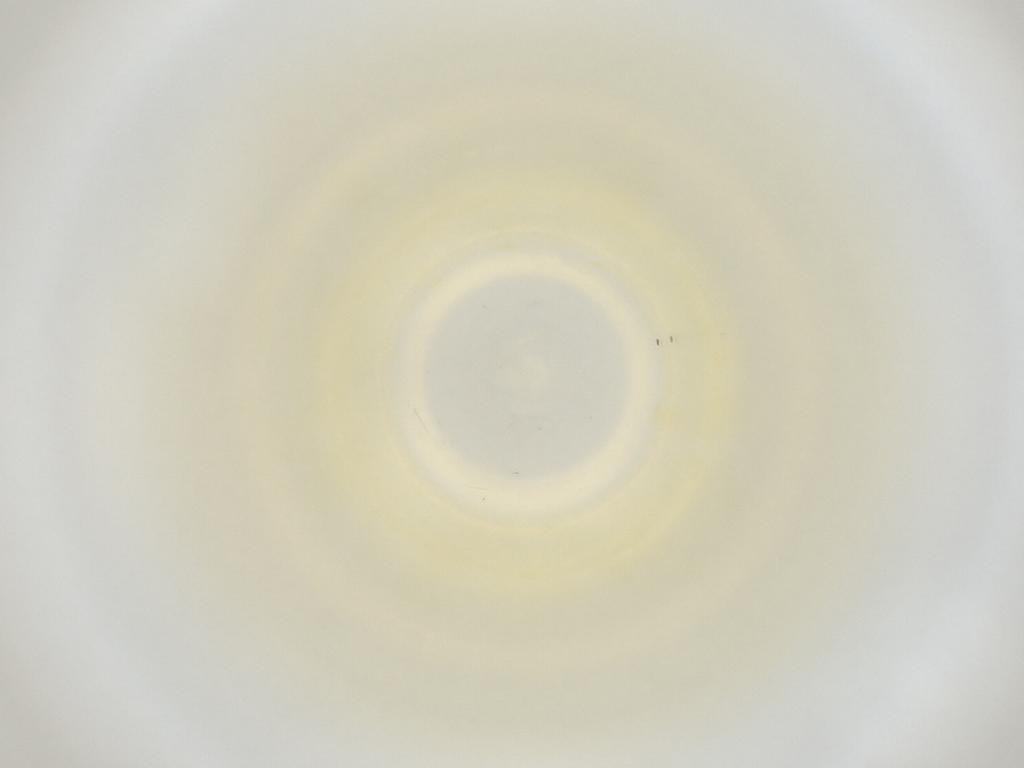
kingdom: Animalia
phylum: Arthropoda
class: Insecta
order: Diptera
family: Cecidomyiidae
